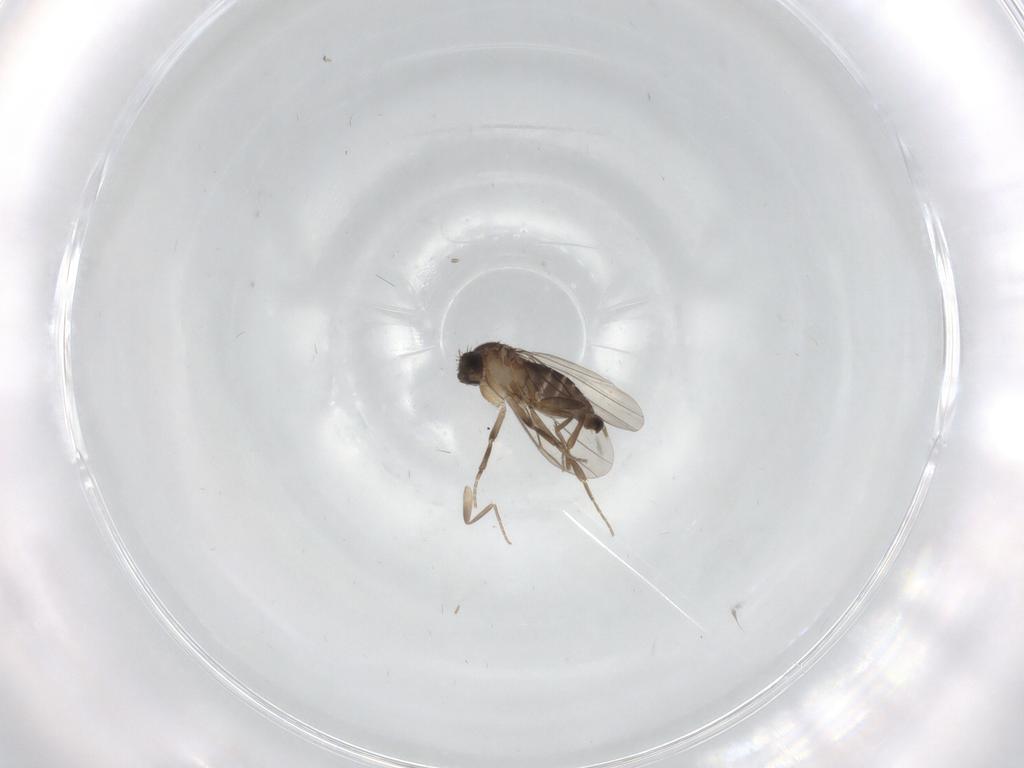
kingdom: Animalia
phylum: Arthropoda
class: Insecta
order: Diptera
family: Phoridae
